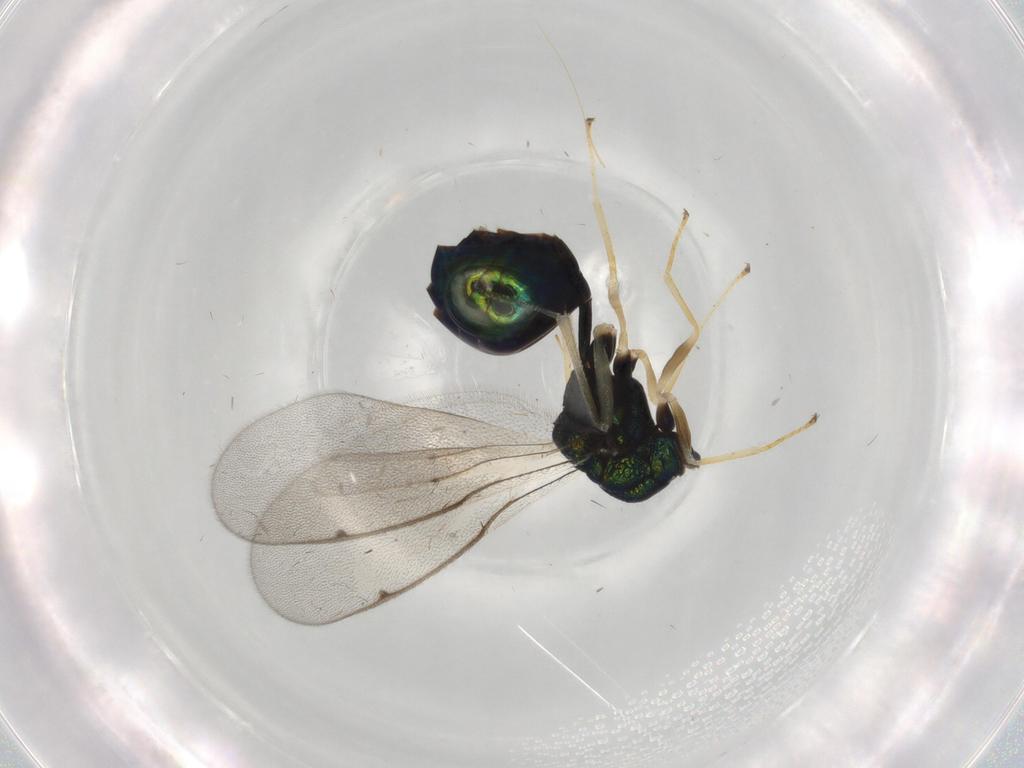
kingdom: Animalia
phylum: Arthropoda
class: Insecta
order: Hymenoptera
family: Eucharitidae
